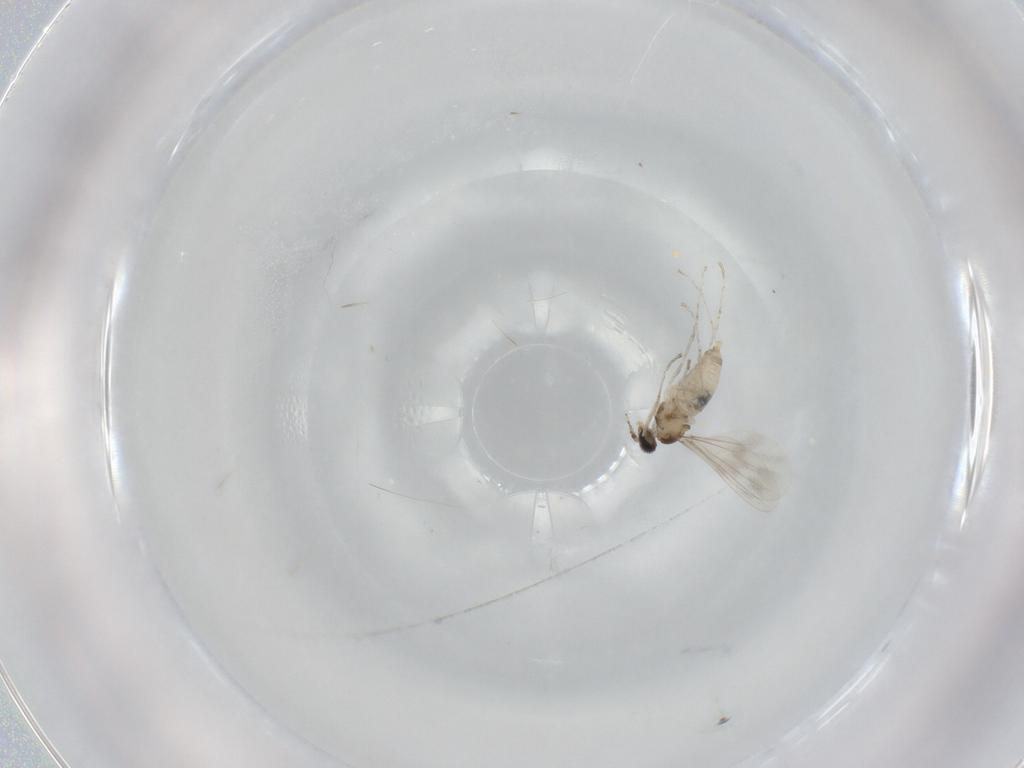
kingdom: Animalia
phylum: Arthropoda
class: Insecta
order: Diptera
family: Cecidomyiidae
